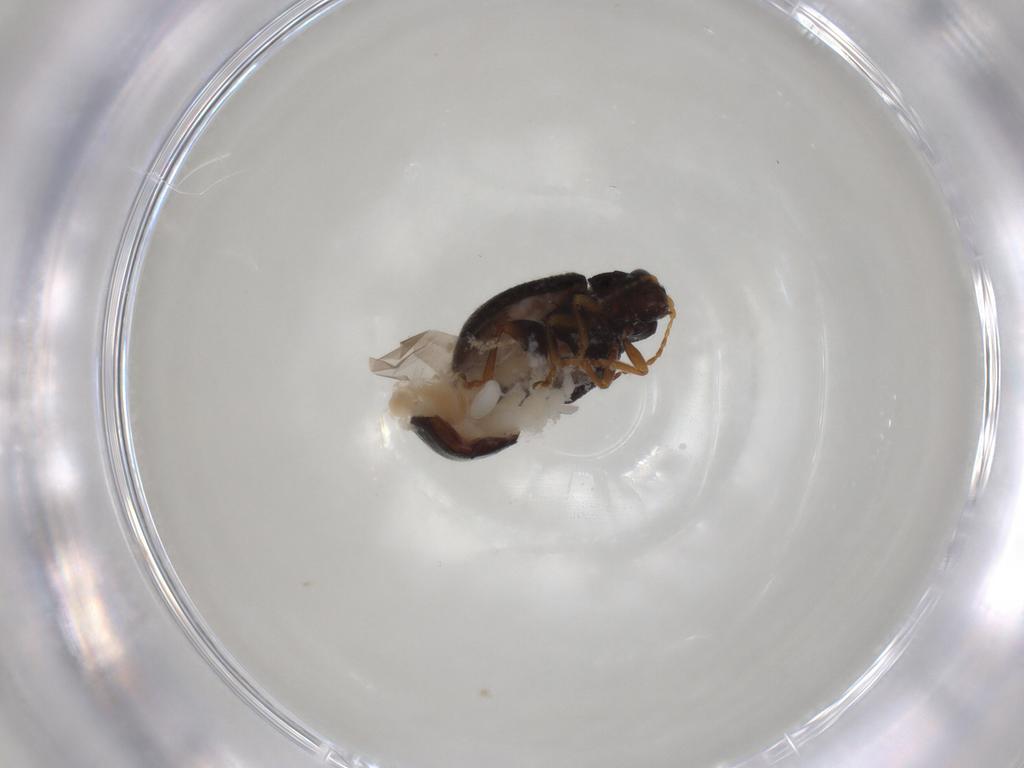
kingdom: Animalia
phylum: Arthropoda
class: Insecta
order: Coleoptera
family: Chrysomelidae
